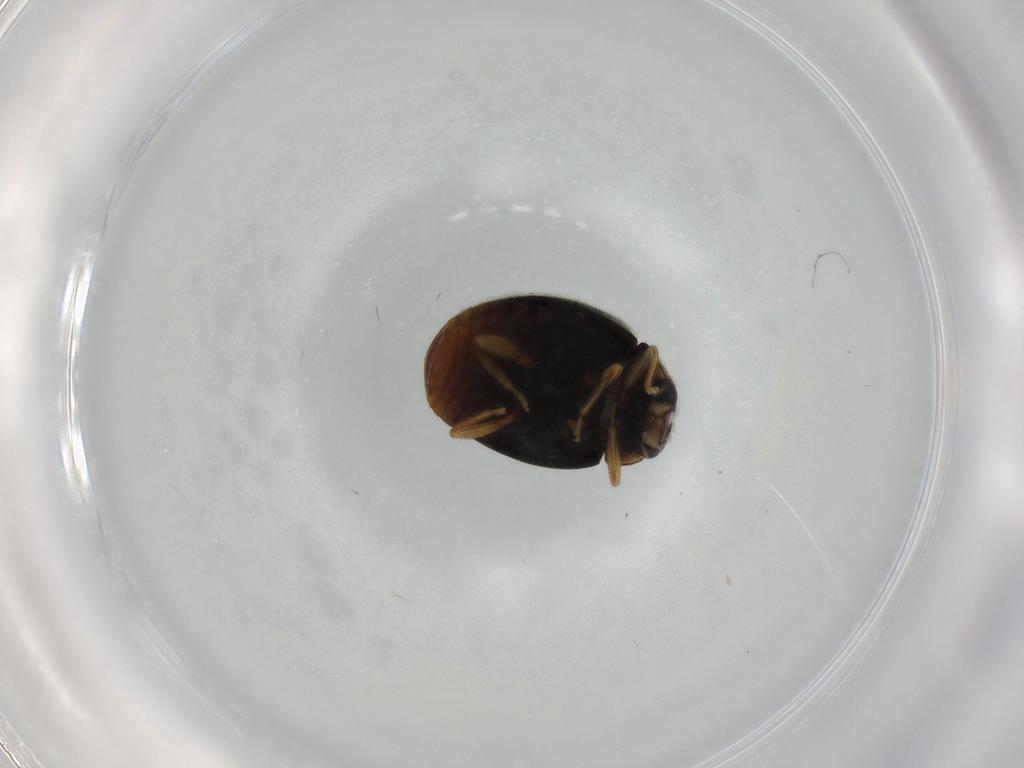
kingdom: Animalia
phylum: Arthropoda
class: Insecta
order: Coleoptera
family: Coccinellidae
